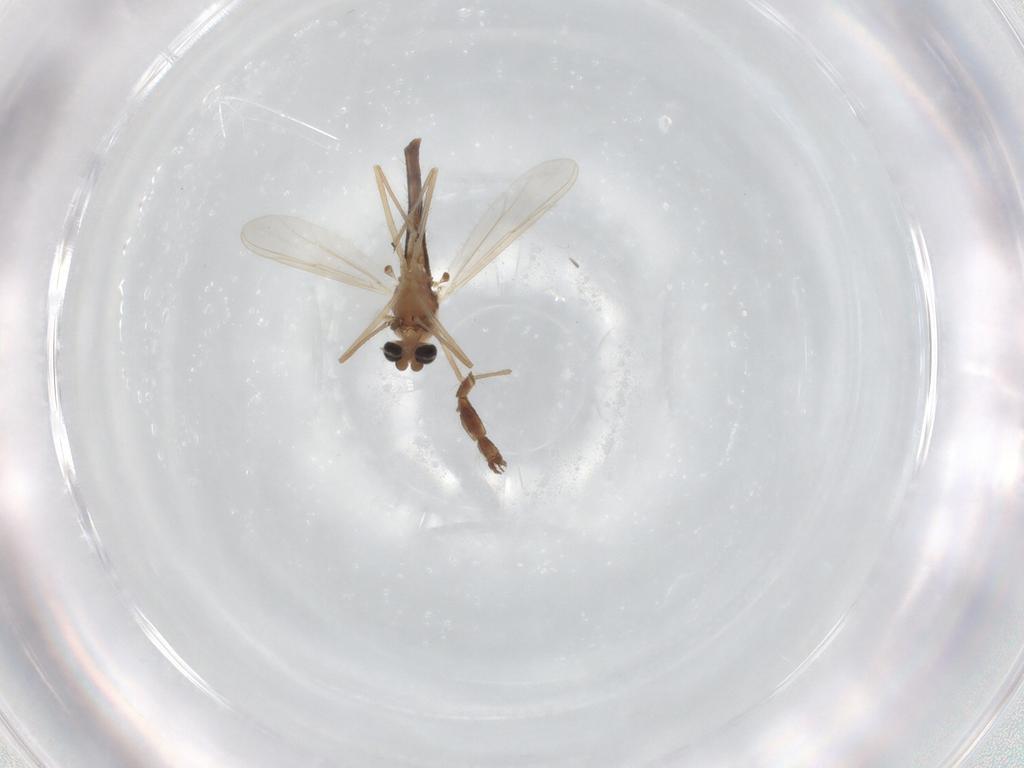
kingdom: Animalia
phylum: Arthropoda
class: Insecta
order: Diptera
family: Chironomidae
